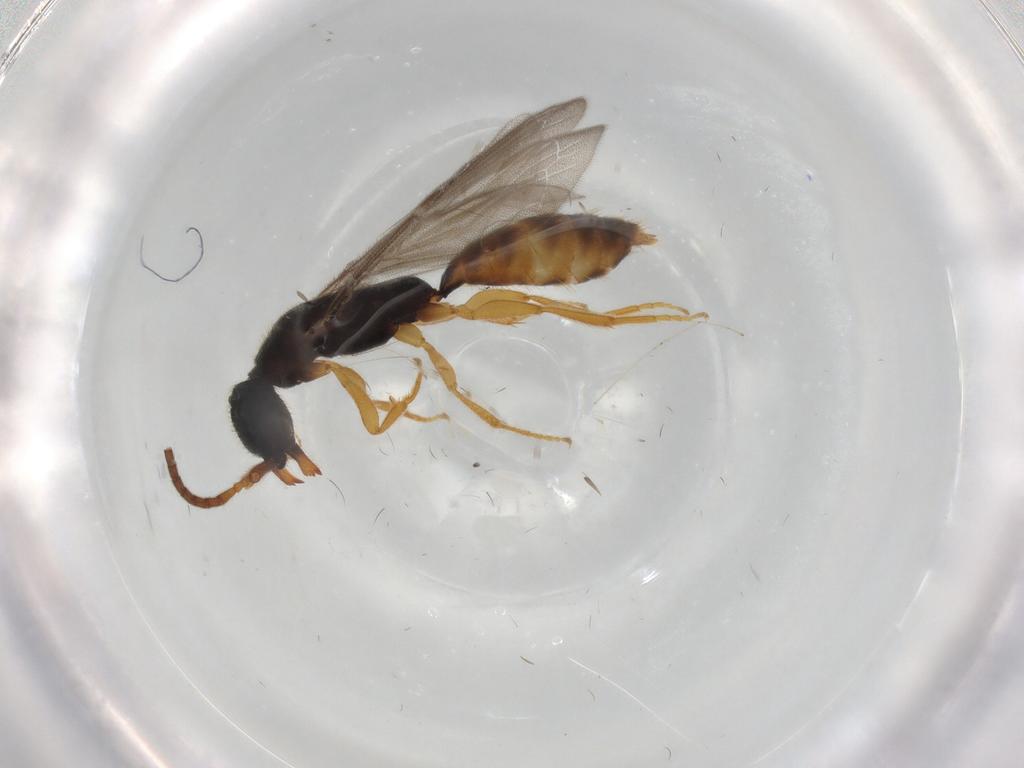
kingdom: Animalia
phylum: Arthropoda
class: Insecta
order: Hymenoptera
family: Bethylidae
